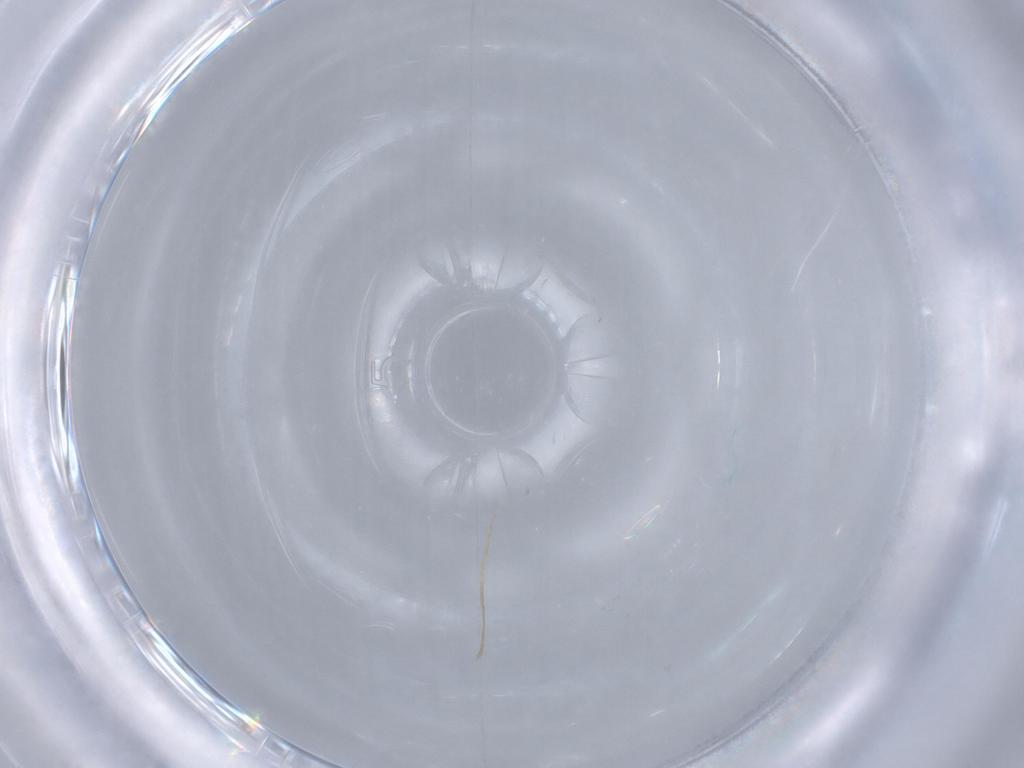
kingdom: Animalia
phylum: Arthropoda
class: Insecta
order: Diptera
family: Cecidomyiidae
